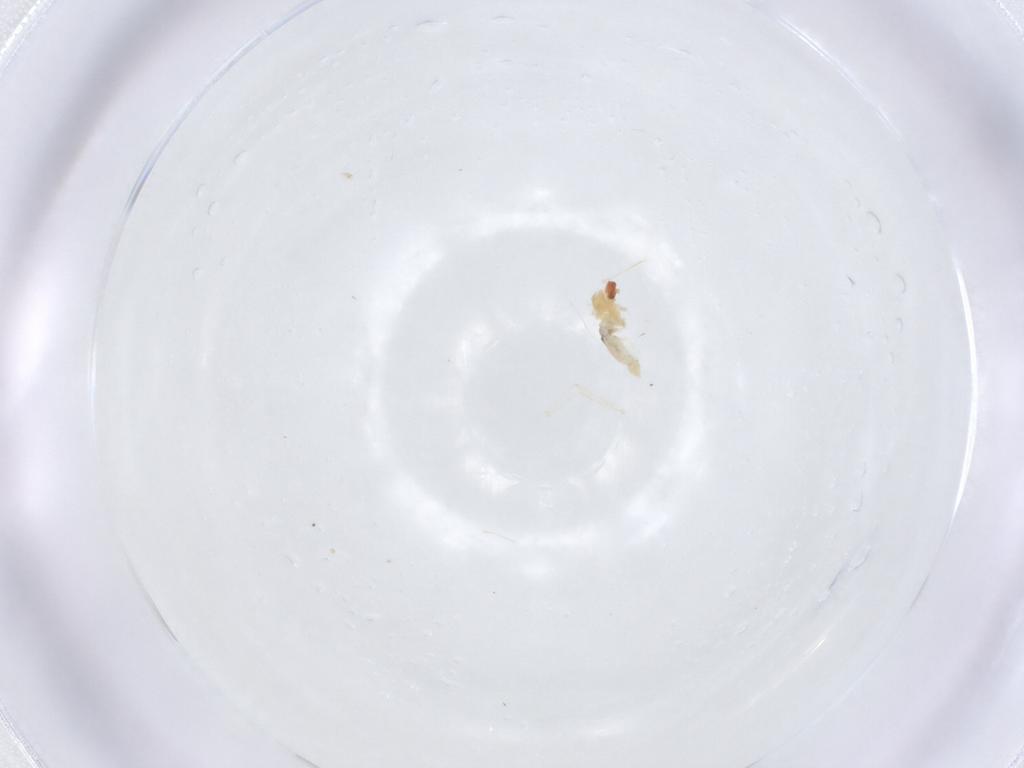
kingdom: Animalia
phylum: Arthropoda
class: Insecta
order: Diptera
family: Cecidomyiidae
